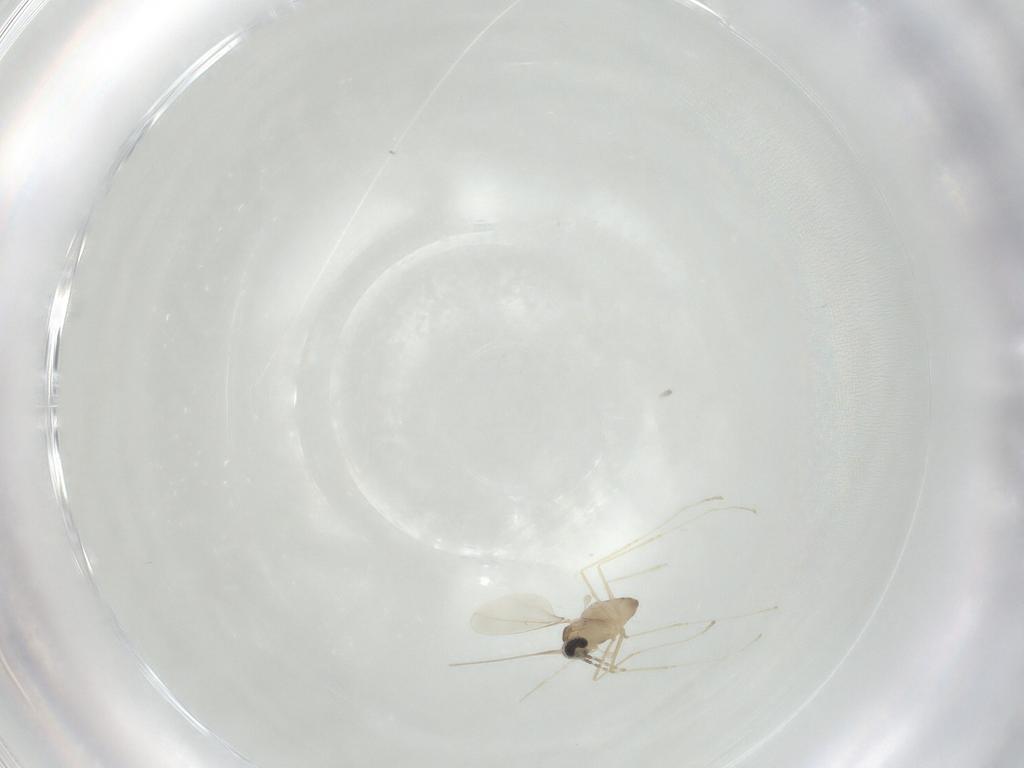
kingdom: Animalia
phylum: Arthropoda
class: Insecta
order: Diptera
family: Cecidomyiidae
